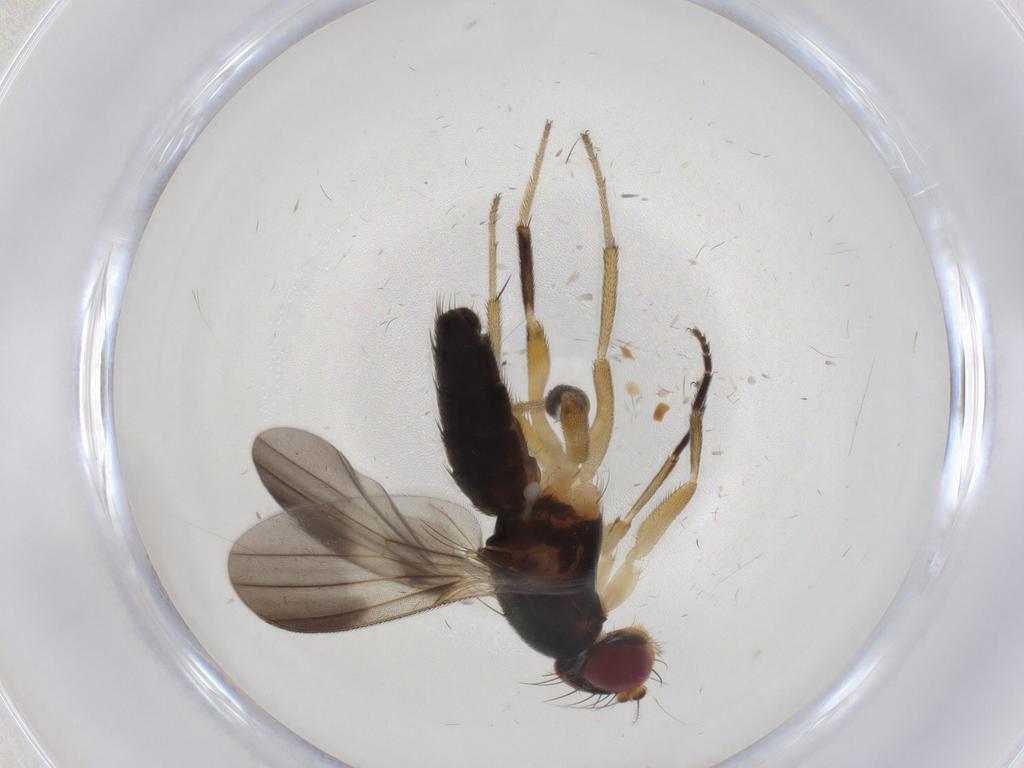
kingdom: Animalia
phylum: Arthropoda
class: Insecta
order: Diptera
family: Clusiidae
